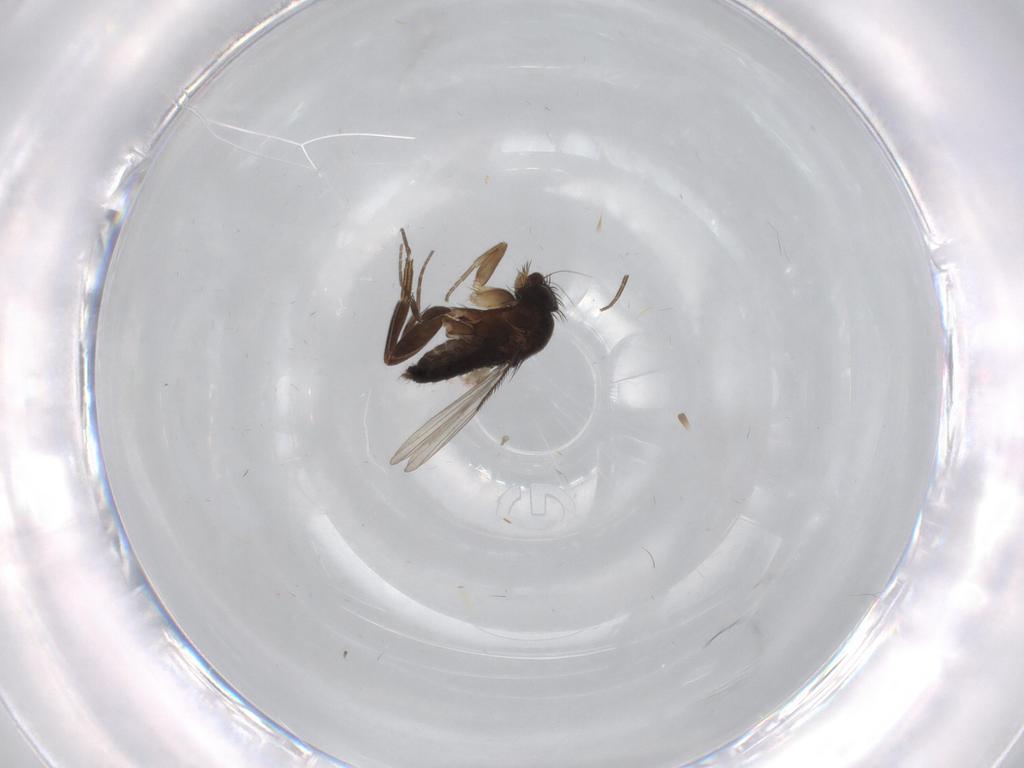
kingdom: Animalia
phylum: Arthropoda
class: Insecta
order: Diptera
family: Phoridae
